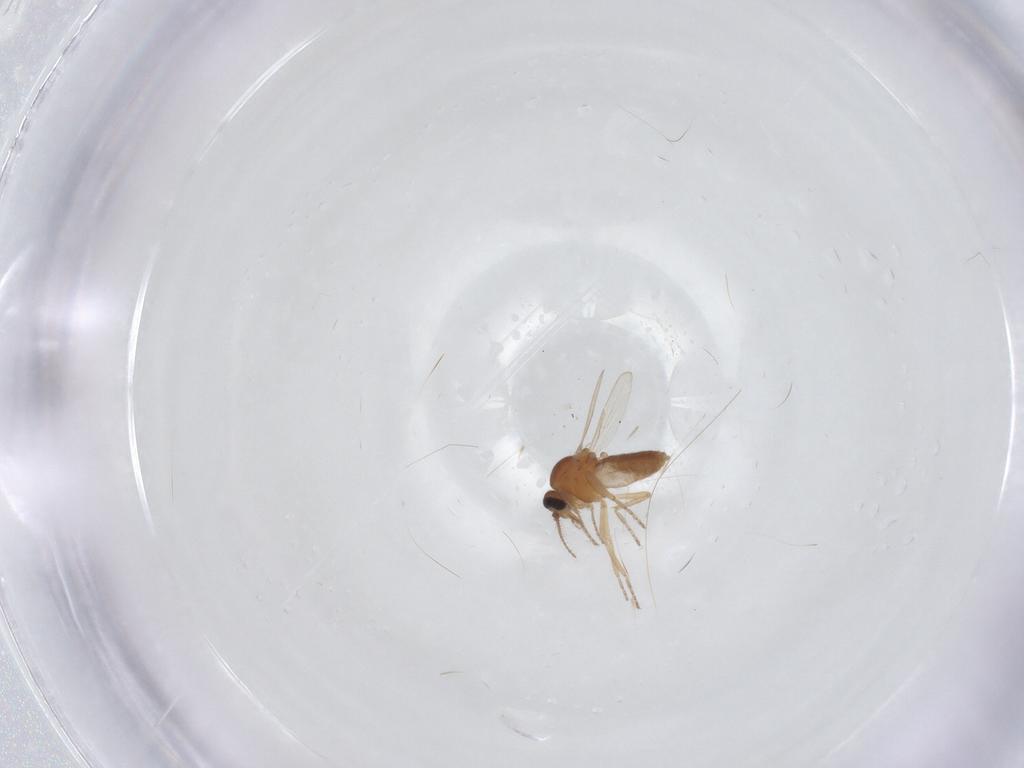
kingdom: Animalia
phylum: Arthropoda
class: Insecta
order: Diptera
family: Ceratopogonidae
